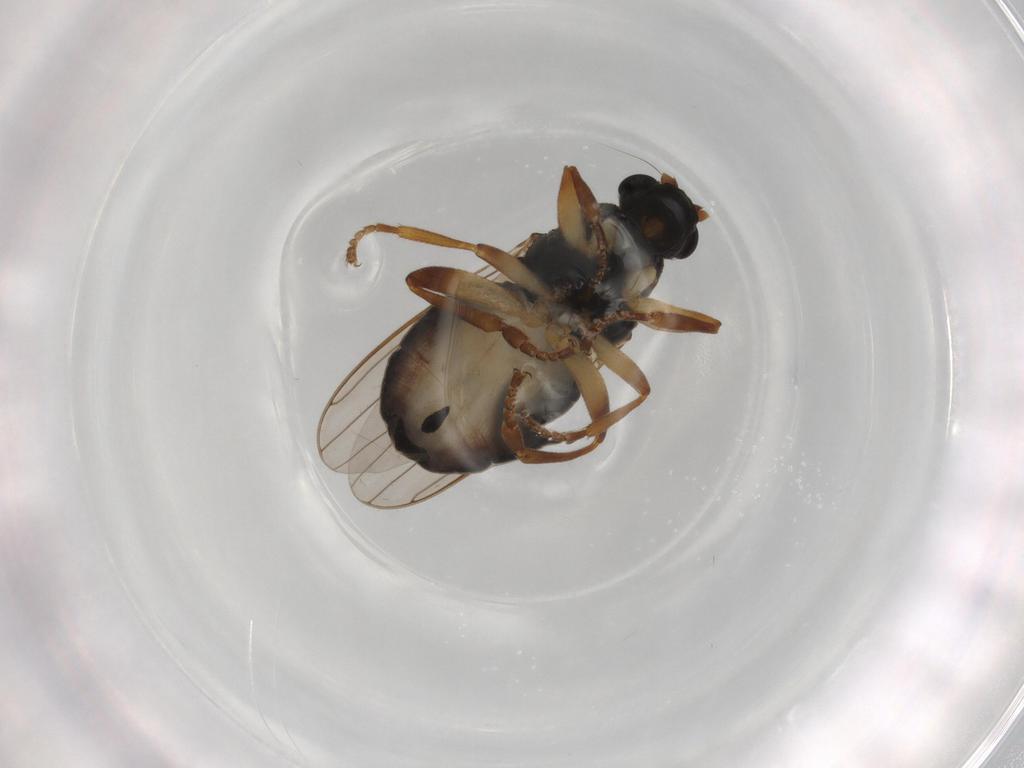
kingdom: Animalia
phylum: Arthropoda
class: Insecta
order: Diptera
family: Sphaeroceridae
